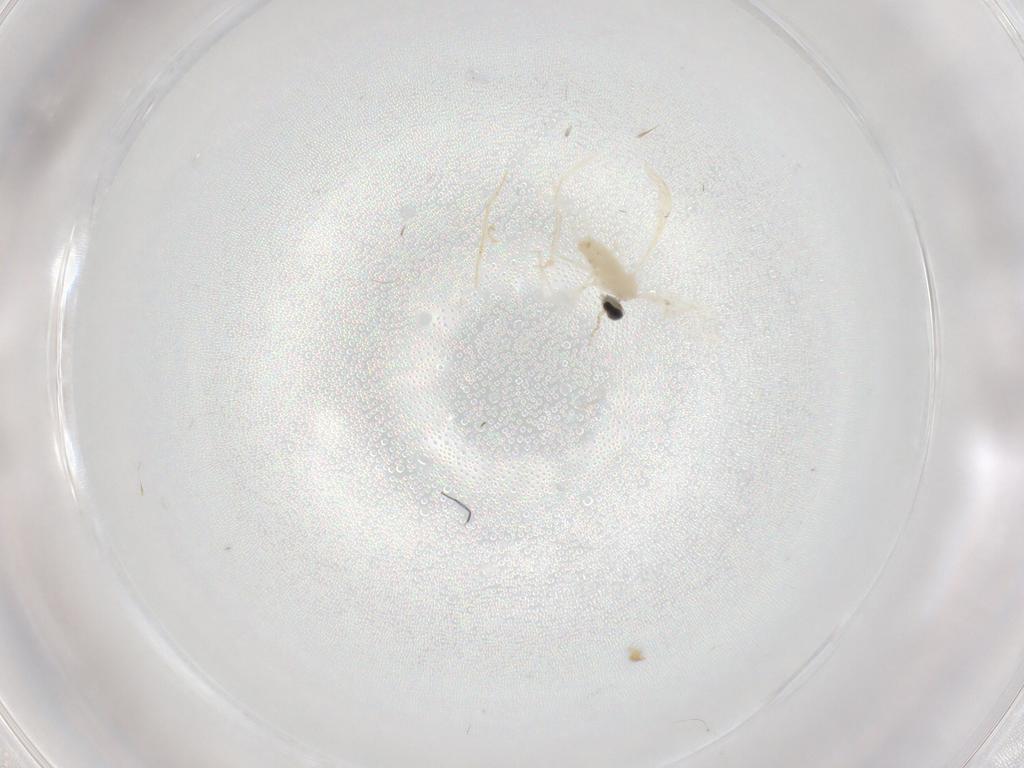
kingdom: Animalia
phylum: Arthropoda
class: Insecta
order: Diptera
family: Cecidomyiidae
